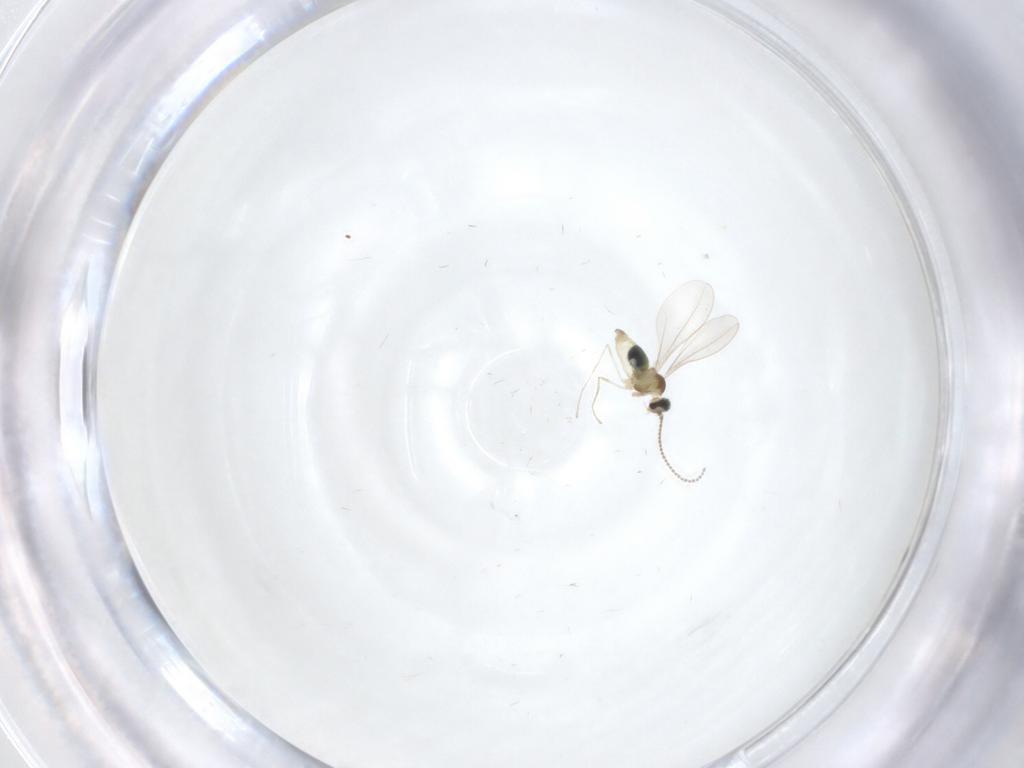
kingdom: Animalia
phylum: Arthropoda
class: Insecta
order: Diptera
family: Cecidomyiidae
